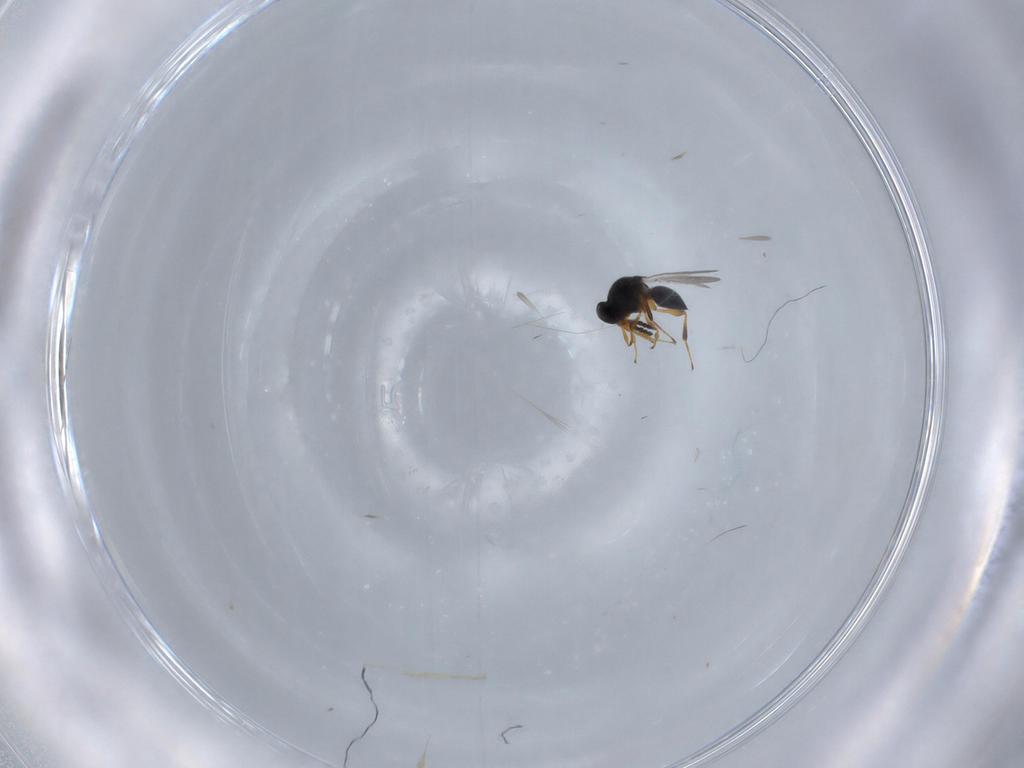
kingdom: Animalia
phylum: Arthropoda
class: Insecta
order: Hymenoptera
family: Platygastridae
